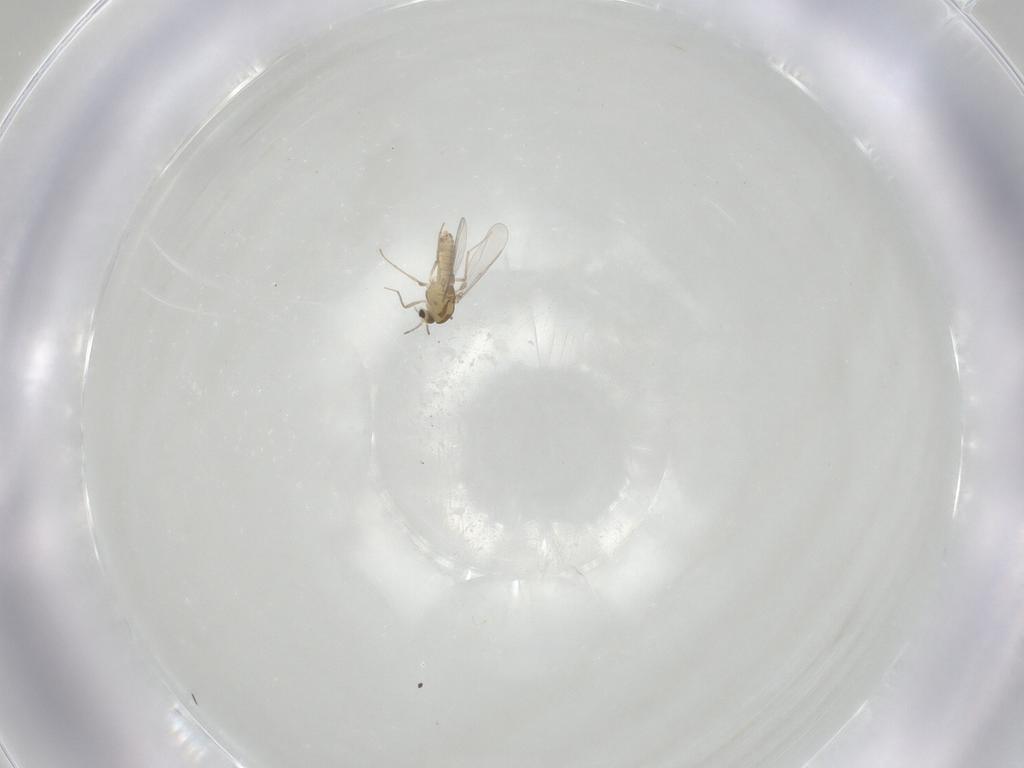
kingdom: Animalia
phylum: Arthropoda
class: Insecta
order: Diptera
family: Chironomidae
